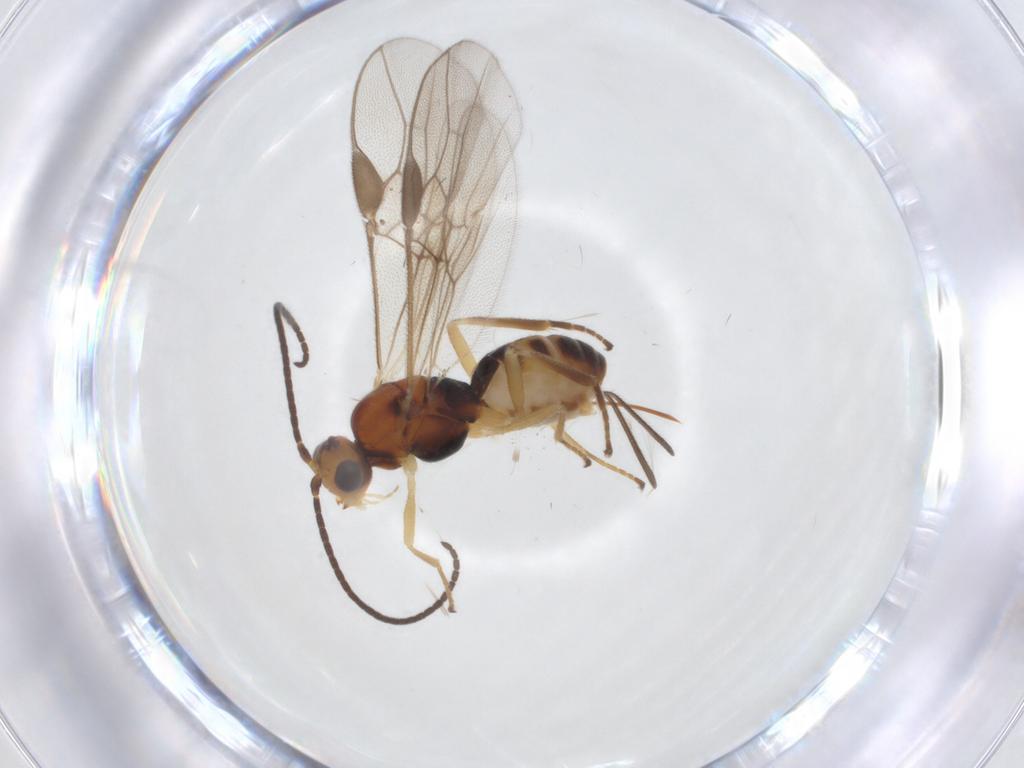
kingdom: Animalia
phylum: Arthropoda
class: Insecta
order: Hymenoptera
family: Braconidae
